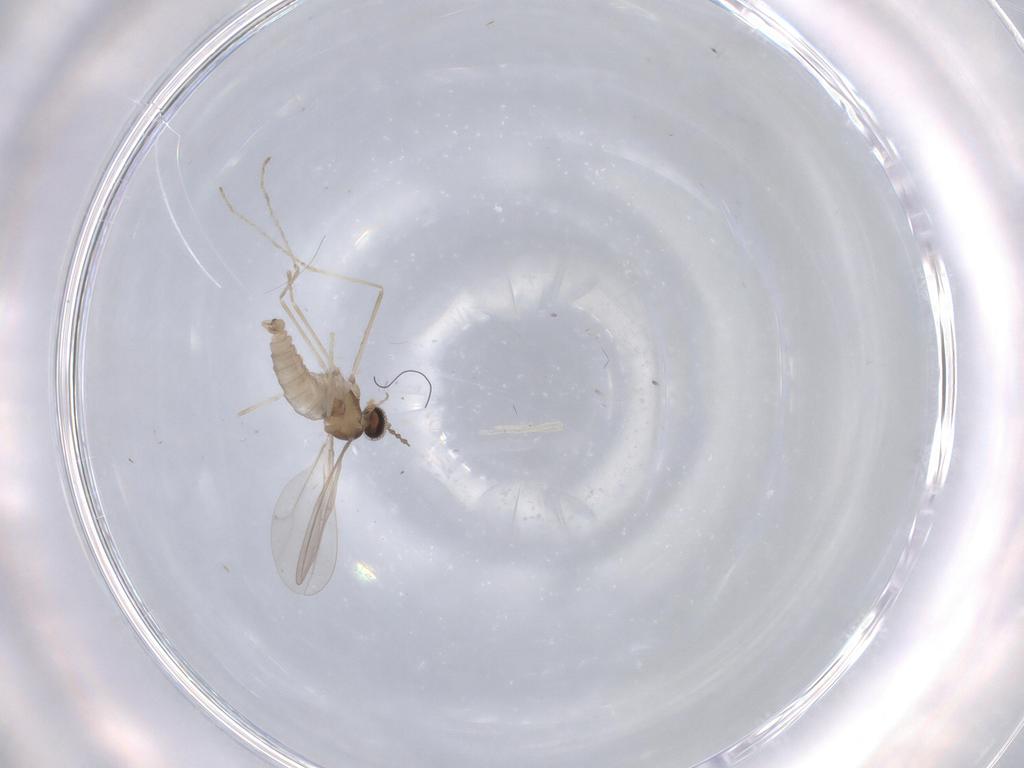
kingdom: Animalia
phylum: Arthropoda
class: Insecta
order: Diptera
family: Cecidomyiidae
